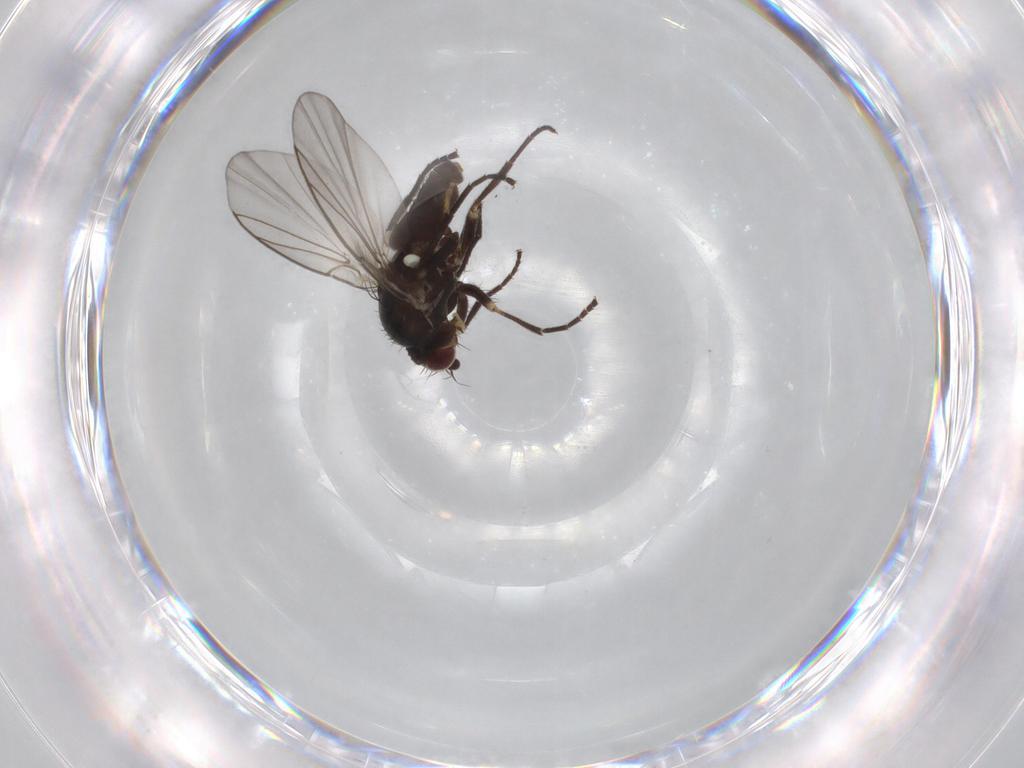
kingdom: Animalia
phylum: Arthropoda
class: Insecta
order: Diptera
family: Agromyzidae
